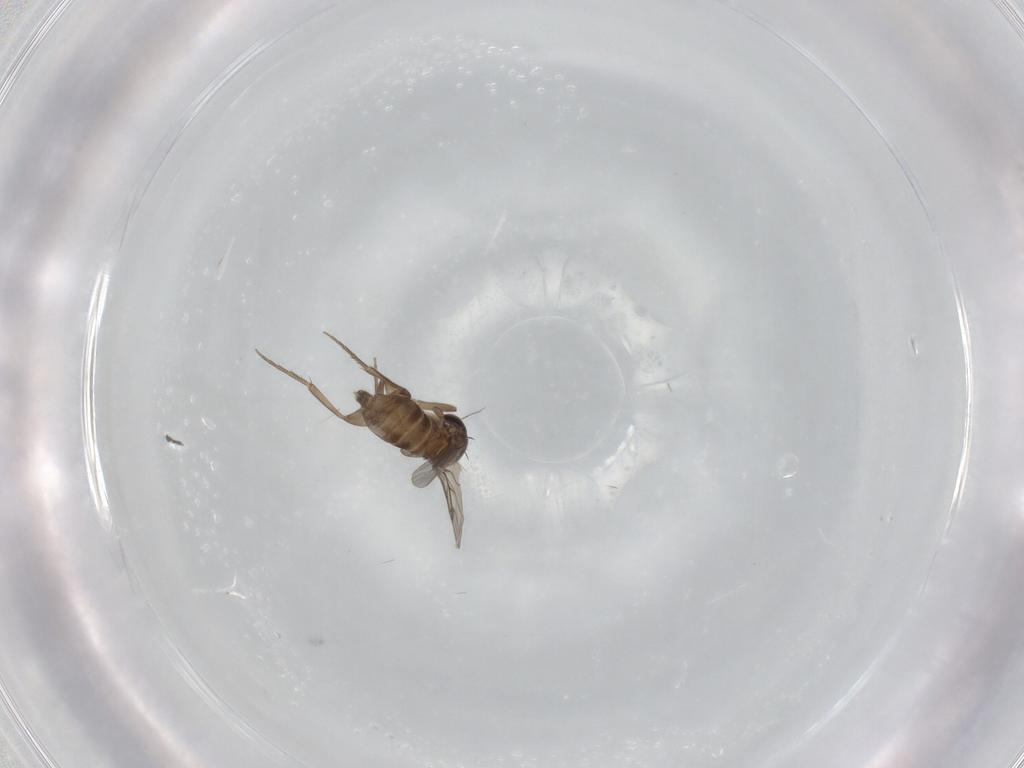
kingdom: Animalia
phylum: Arthropoda
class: Insecta
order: Diptera
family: Phoridae
